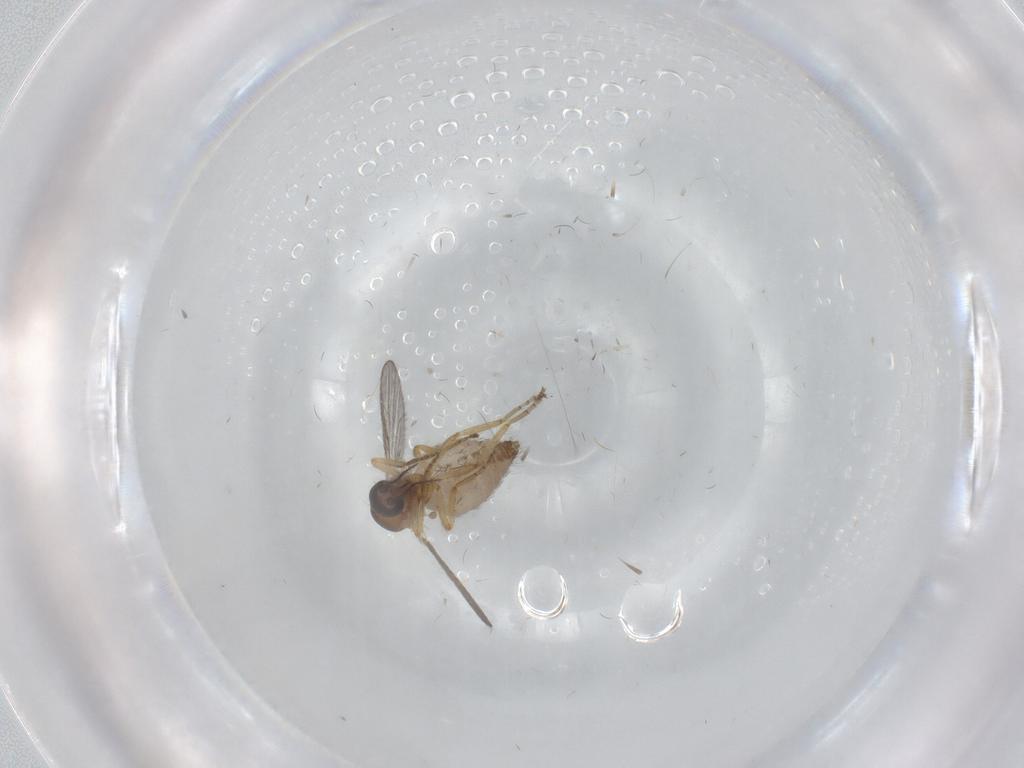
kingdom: Animalia
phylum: Arthropoda
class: Insecta
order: Diptera
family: Ceratopogonidae
